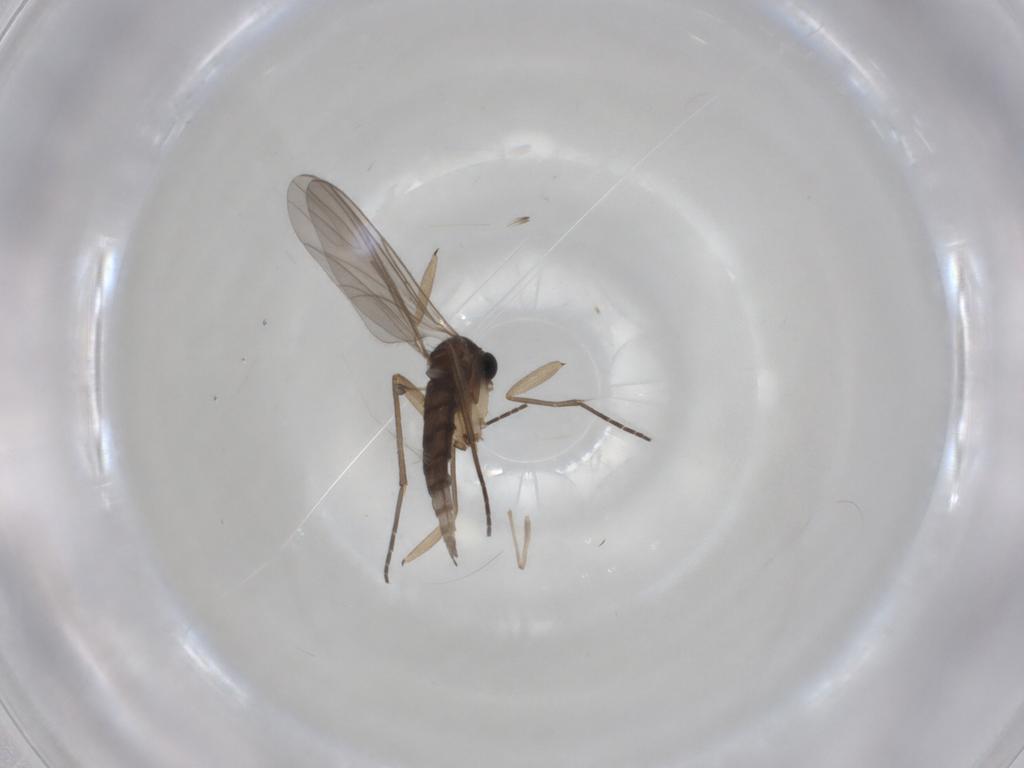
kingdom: Animalia
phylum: Arthropoda
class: Insecta
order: Diptera
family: Sciaridae
